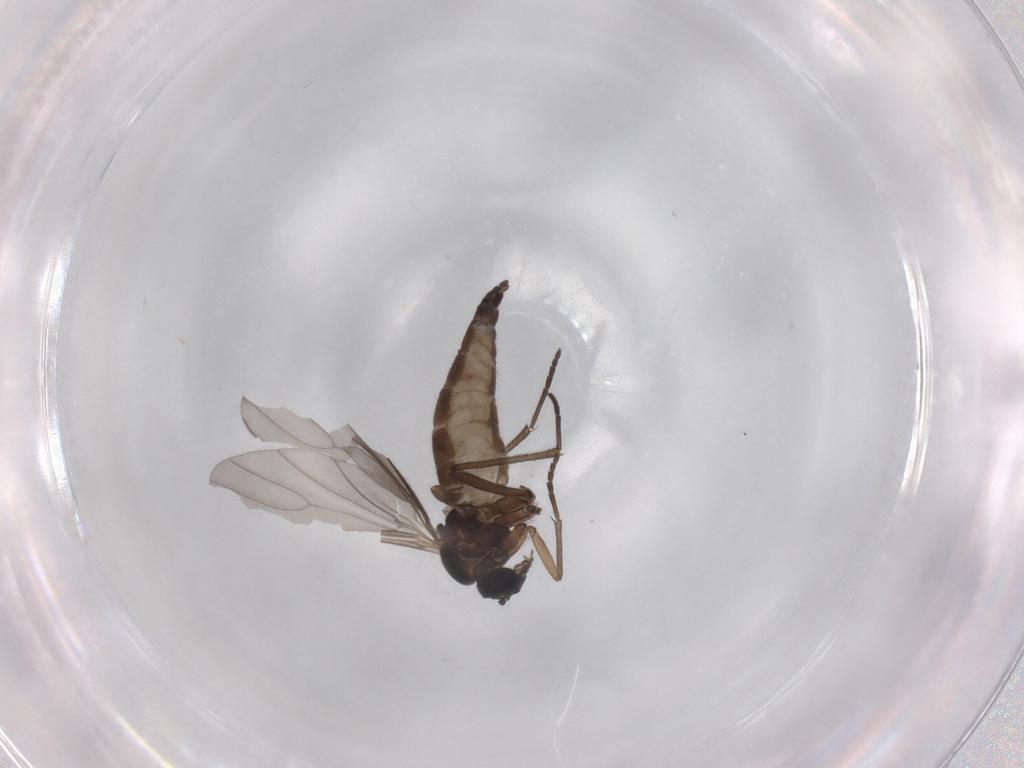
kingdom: Animalia
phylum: Arthropoda
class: Insecta
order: Diptera
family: Sciaridae
